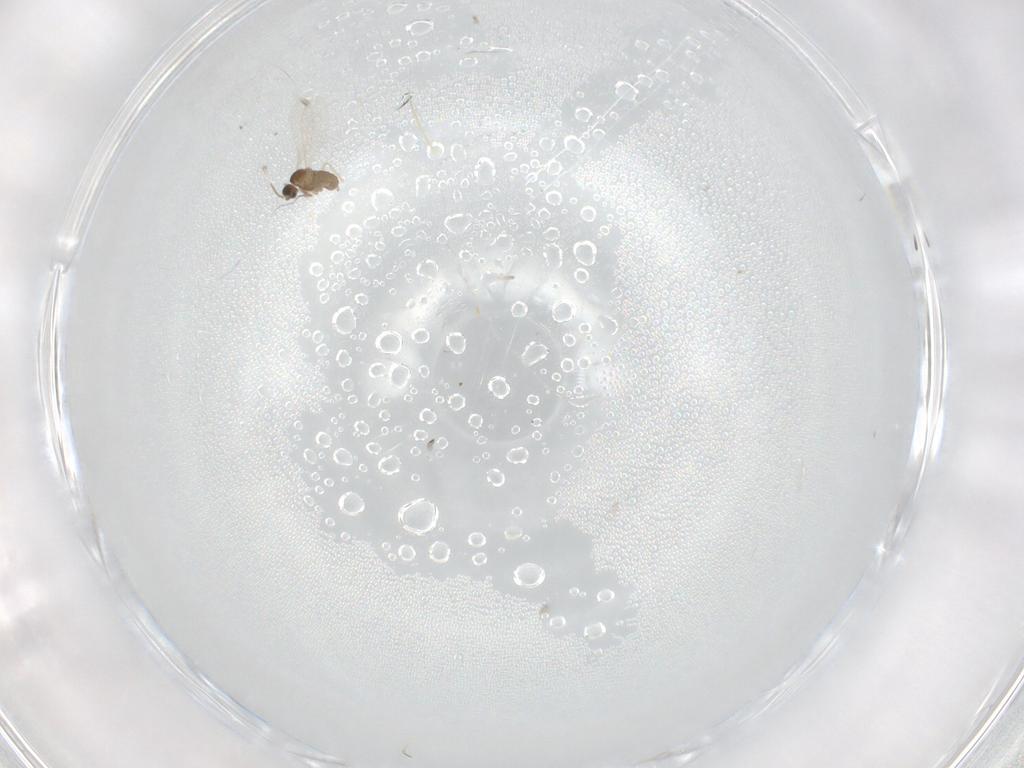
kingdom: Animalia
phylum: Arthropoda
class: Insecta
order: Diptera
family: Psychodidae
